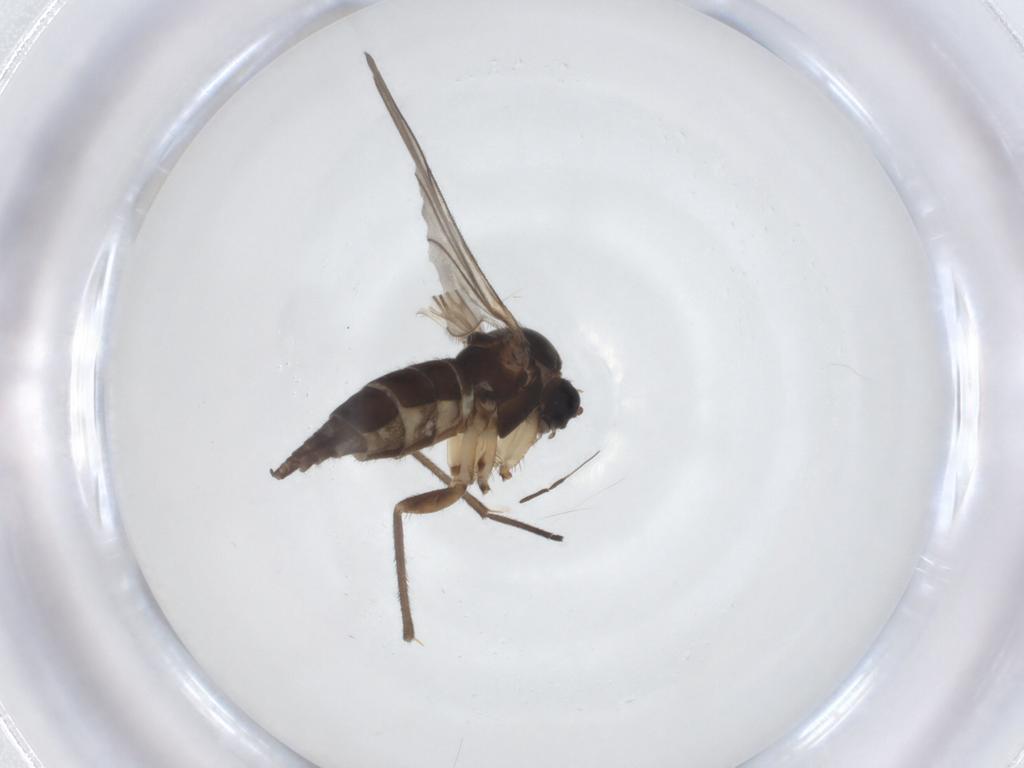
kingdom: Animalia
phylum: Arthropoda
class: Insecta
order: Diptera
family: Sciaridae
